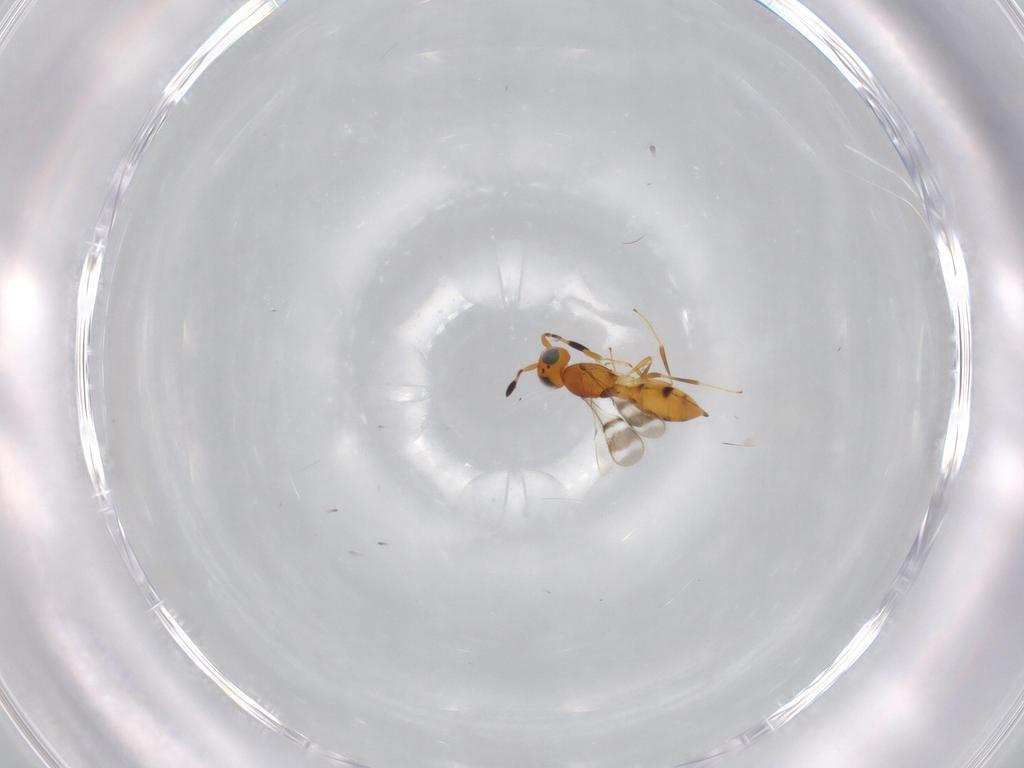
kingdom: Animalia
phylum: Arthropoda
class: Insecta
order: Hymenoptera
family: Scelionidae
